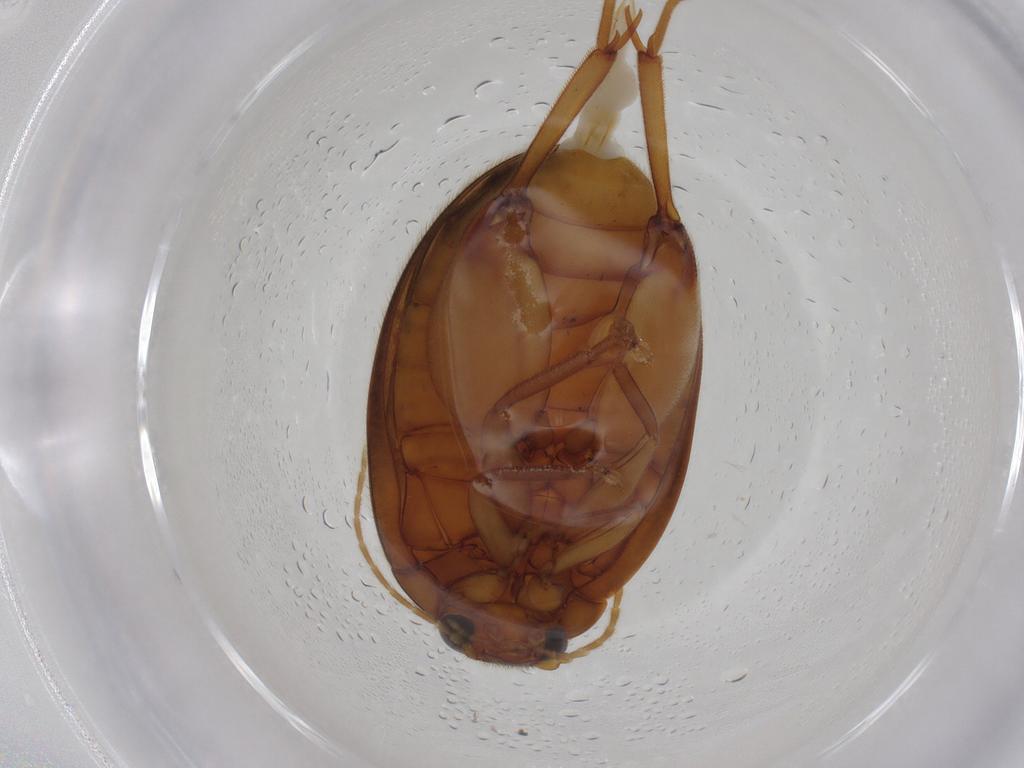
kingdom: Animalia
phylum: Arthropoda
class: Insecta
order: Coleoptera
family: Scirtidae
